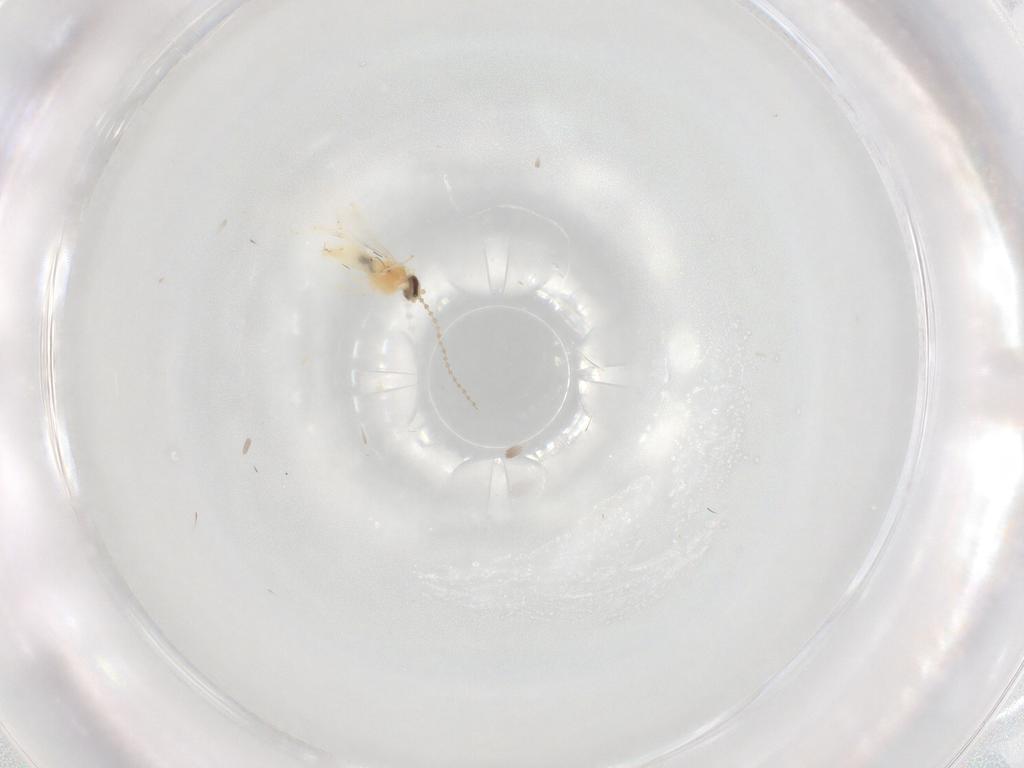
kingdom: Animalia
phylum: Arthropoda
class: Insecta
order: Diptera
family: Cecidomyiidae
